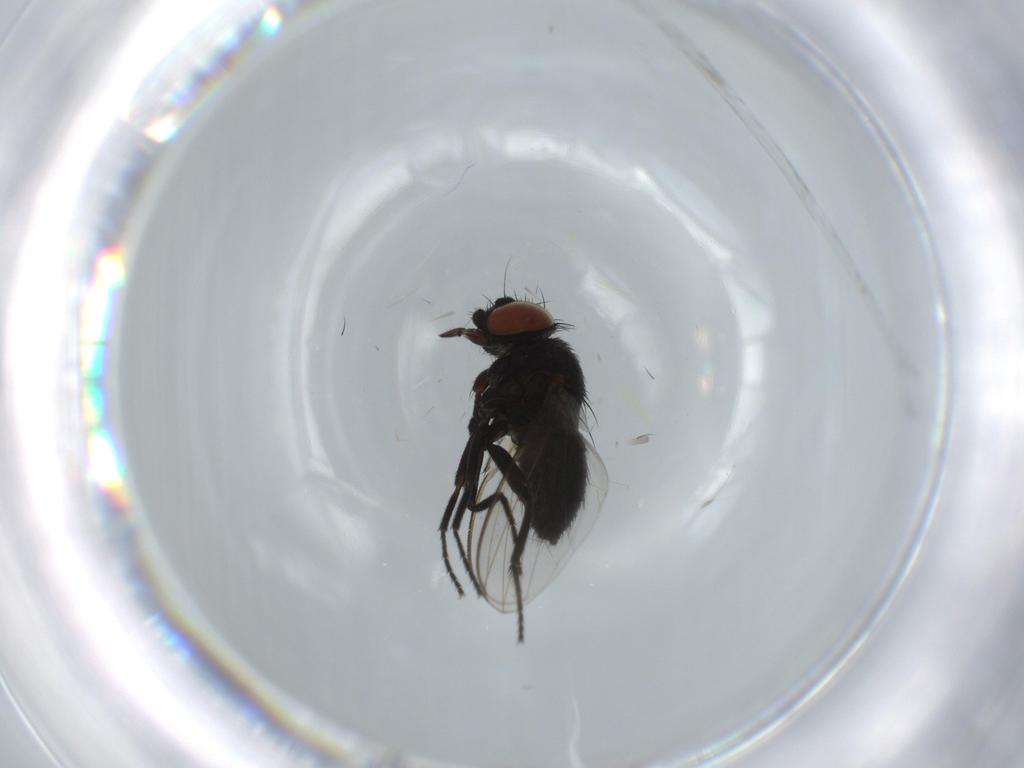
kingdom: Animalia
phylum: Arthropoda
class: Insecta
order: Diptera
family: Milichiidae
